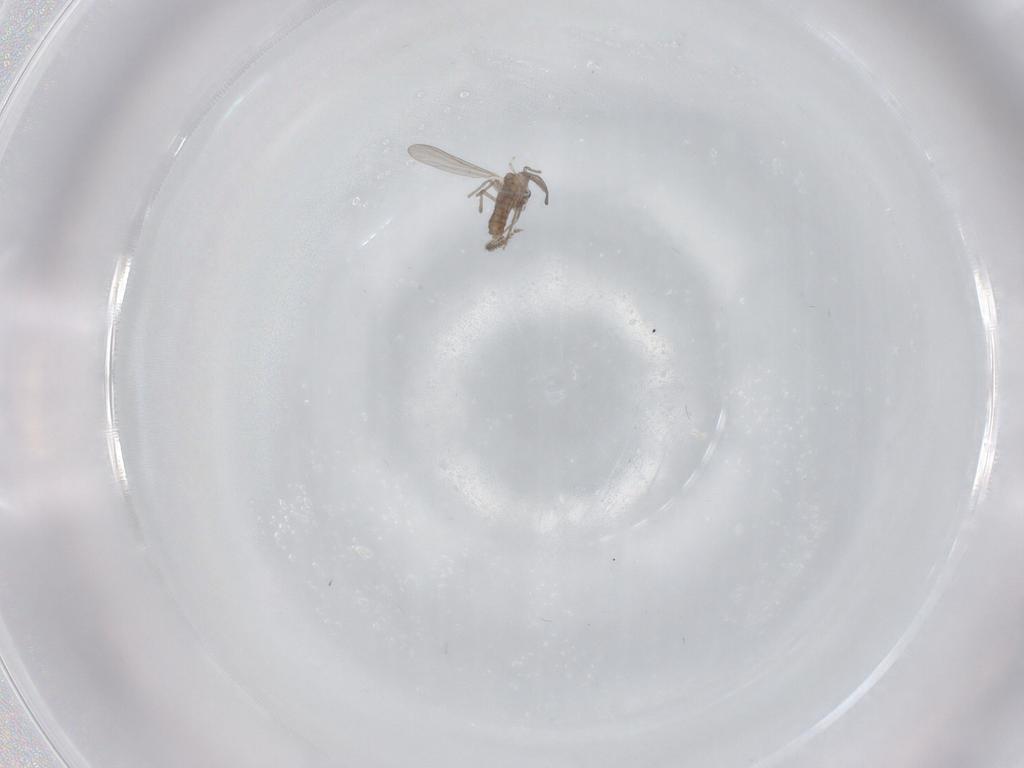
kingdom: Animalia
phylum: Arthropoda
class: Insecta
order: Diptera
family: Chironomidae
